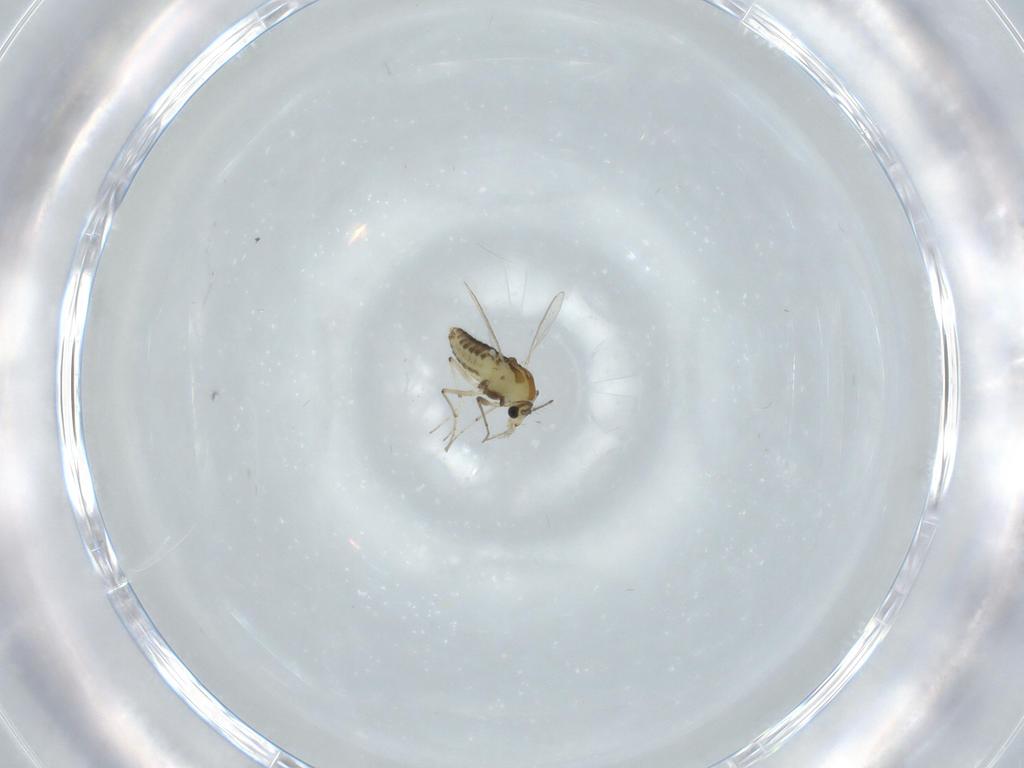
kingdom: Animalia
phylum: Arthropoda
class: Insecta
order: Diptera
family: Chironomidae
